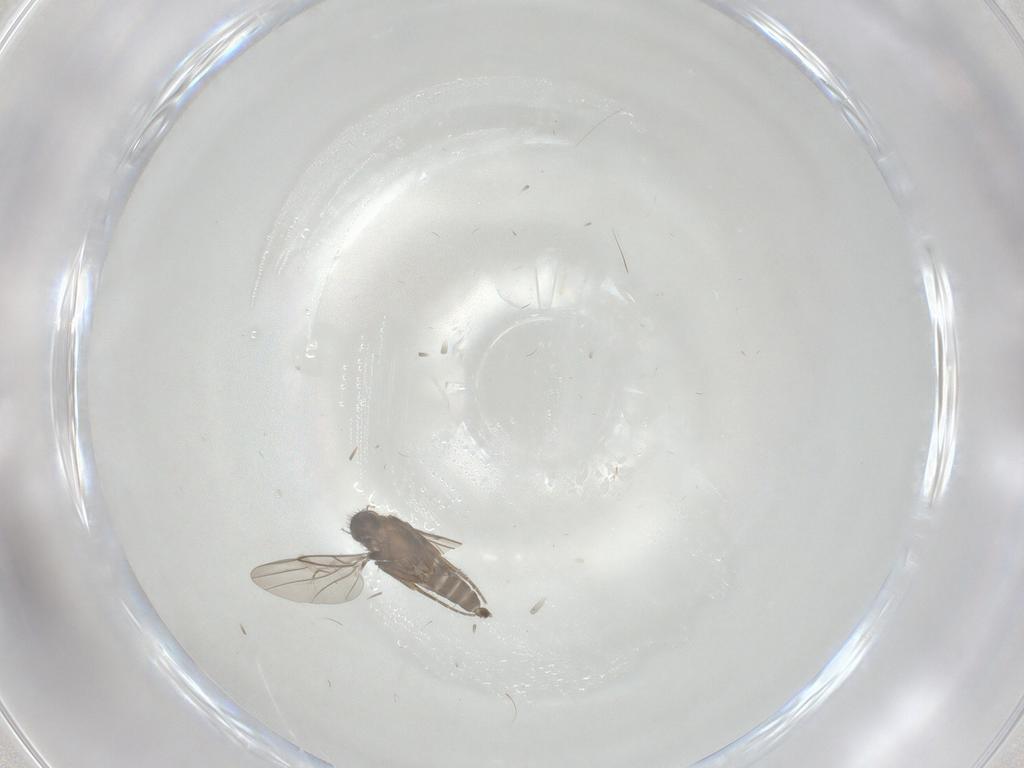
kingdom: Animalia
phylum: Arthropoda
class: Insecta
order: Diptera
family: Phoridae
